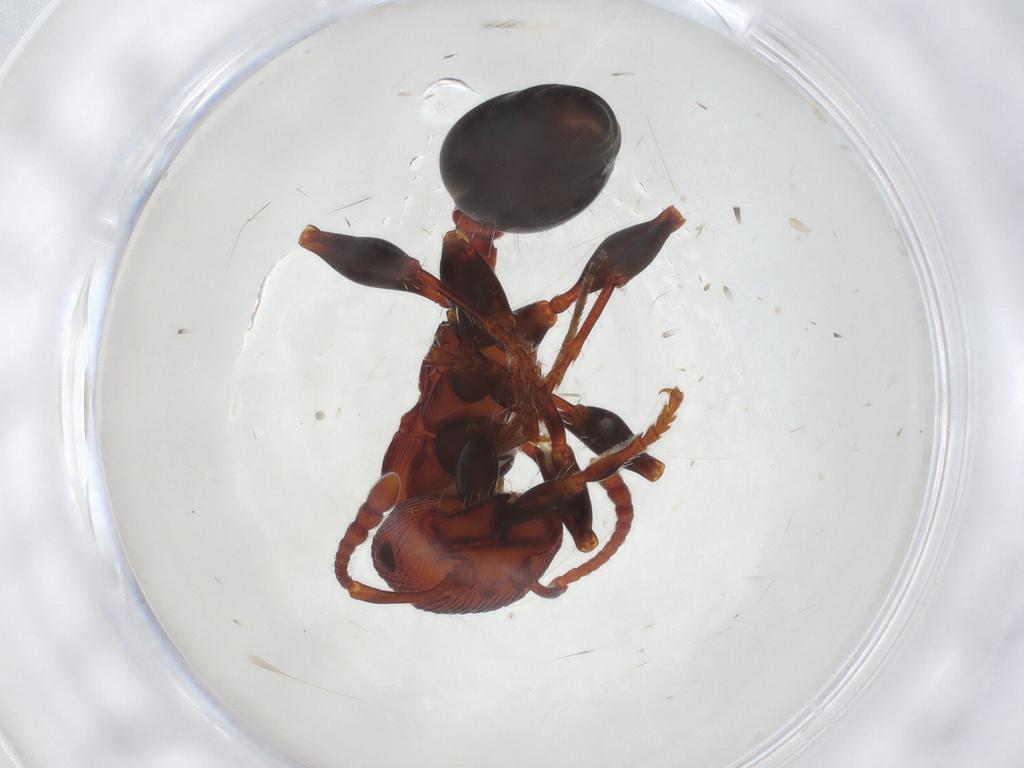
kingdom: Animalia
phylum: Arthropoda
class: Insecta
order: Hymenoptera
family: Formicidae
